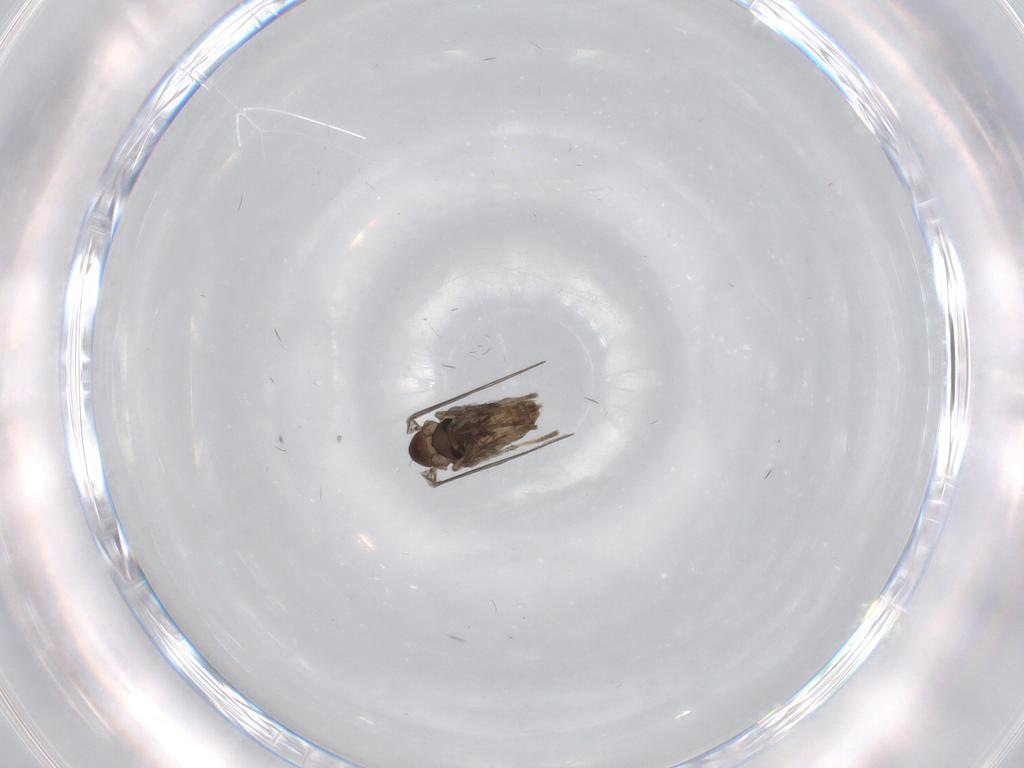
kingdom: Animalia
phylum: Arthropoda
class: Insecta
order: Diptera
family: Psychodidae
